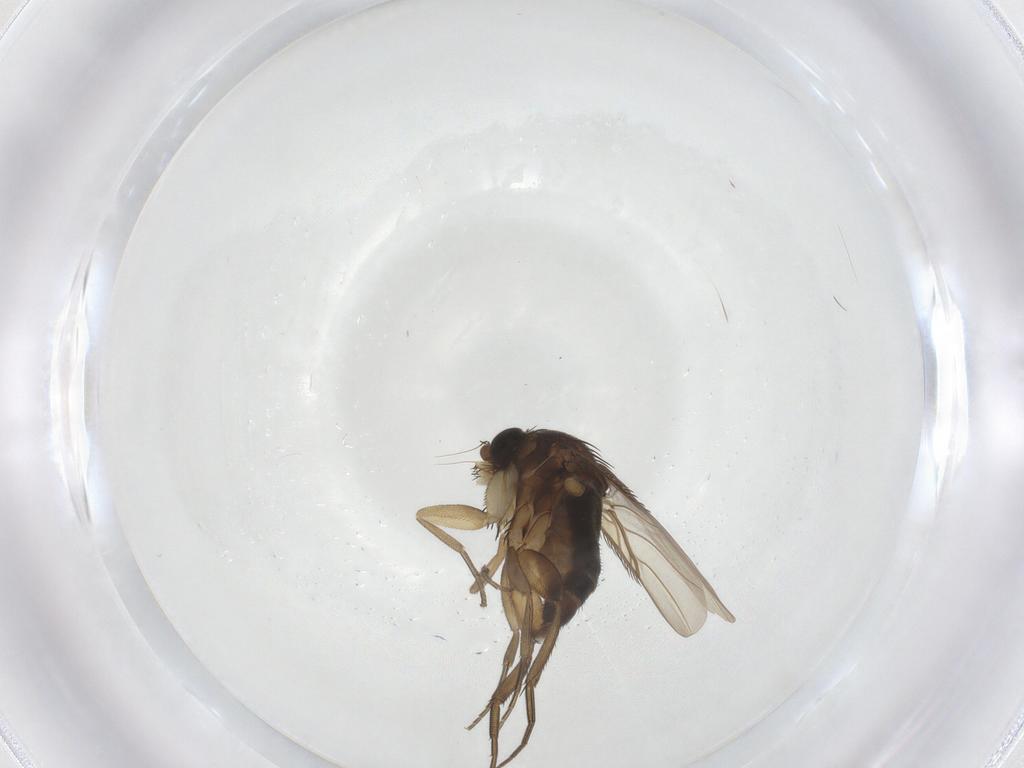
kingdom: Animalia
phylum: Arthropoda
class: Insecta
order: Diptera
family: Phoridae
